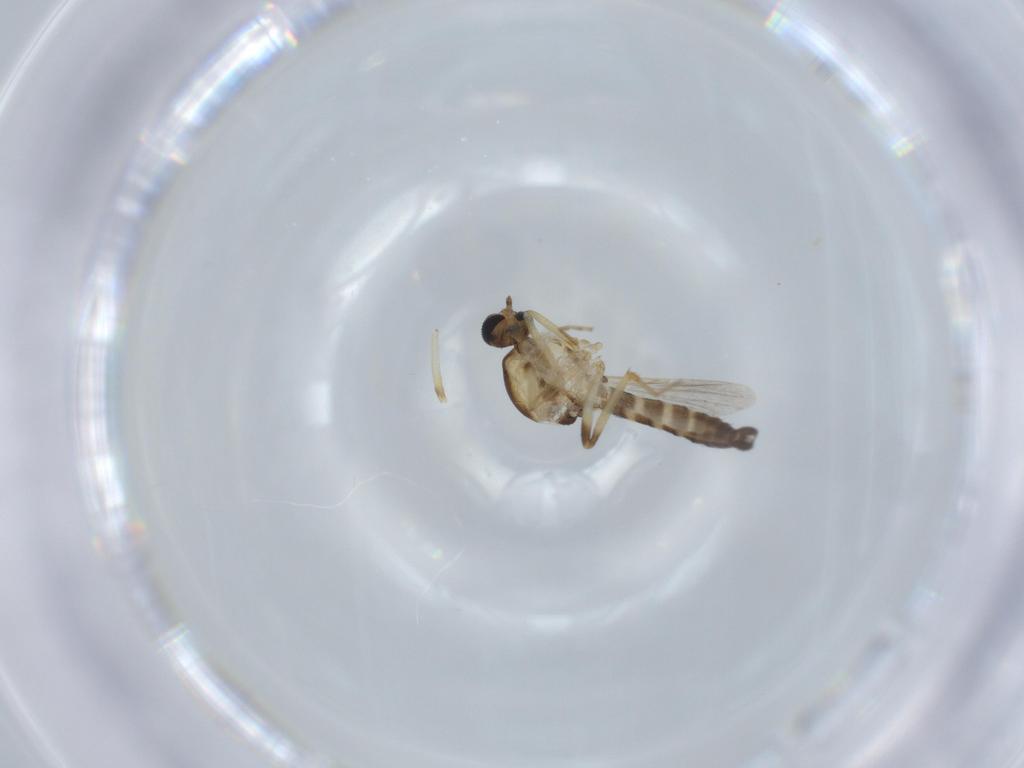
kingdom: Animalia
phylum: Arthropoda
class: Insecta
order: Diptera
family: Ceratopogonidae
